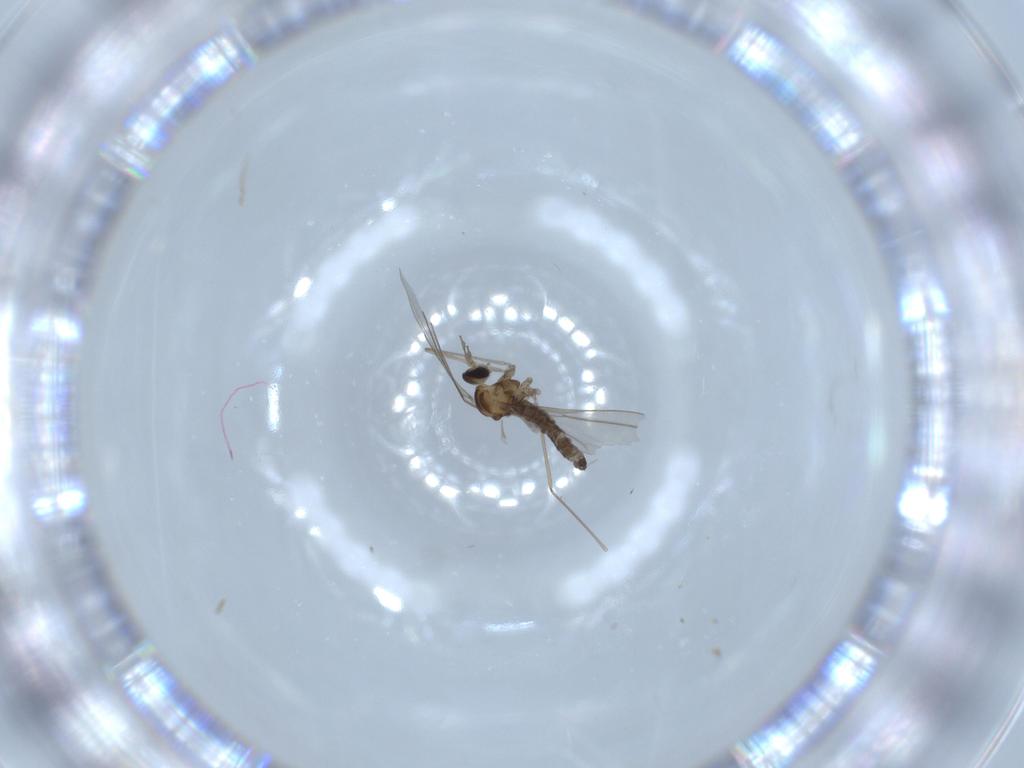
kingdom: Animalia
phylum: Arthropoda
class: Insecta
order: Diptera
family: Cecidomyiidae
